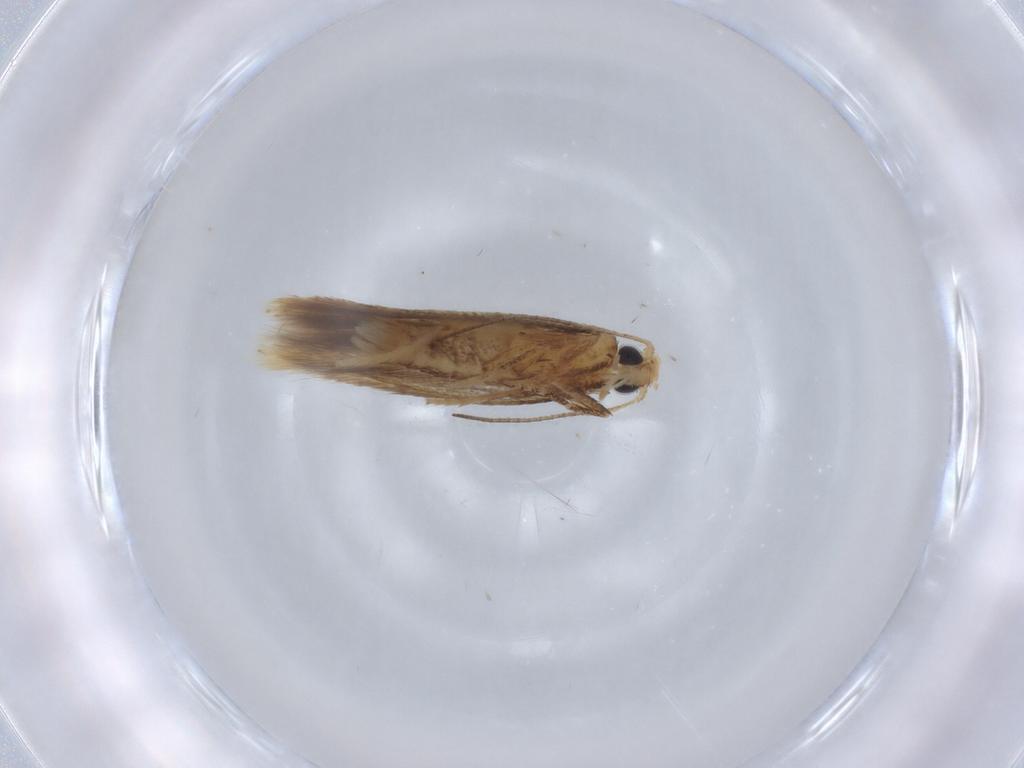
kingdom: Animalia
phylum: Arthropoda
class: Insecta
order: Lepidoptera
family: Tischeriidae
